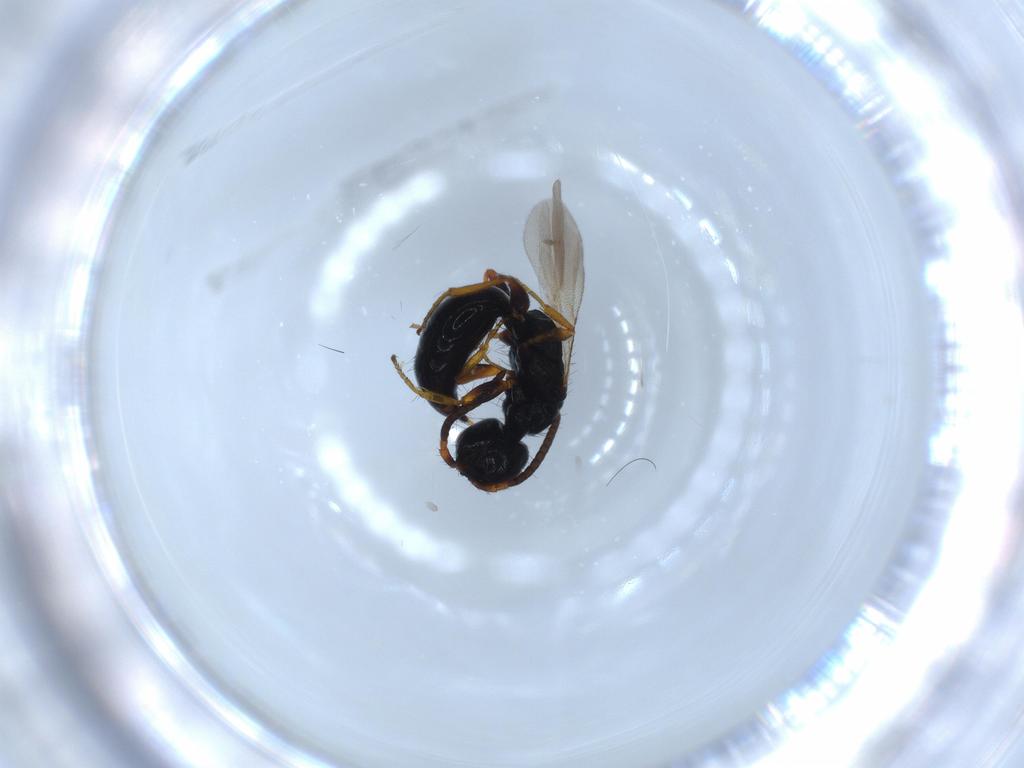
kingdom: Animalia
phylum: Arthropoda
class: Insecta
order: Hymenoptera
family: Bethylidae
